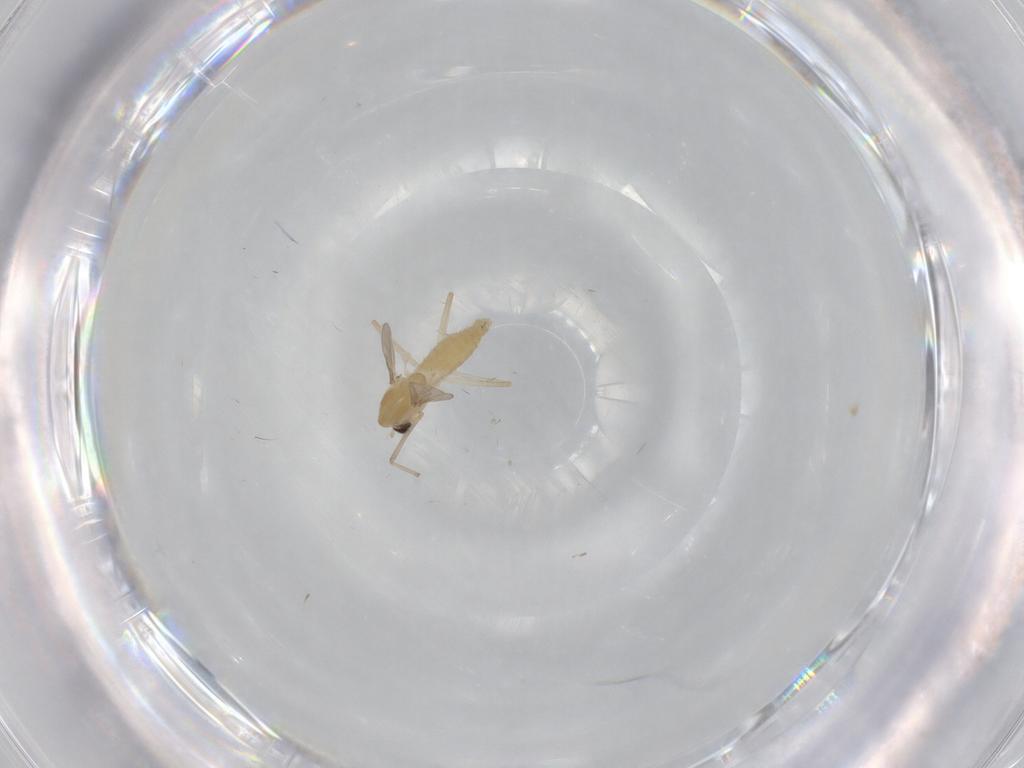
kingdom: Animalia
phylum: Arthropoda
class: Insecta
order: Diptera
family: Chironomidae
